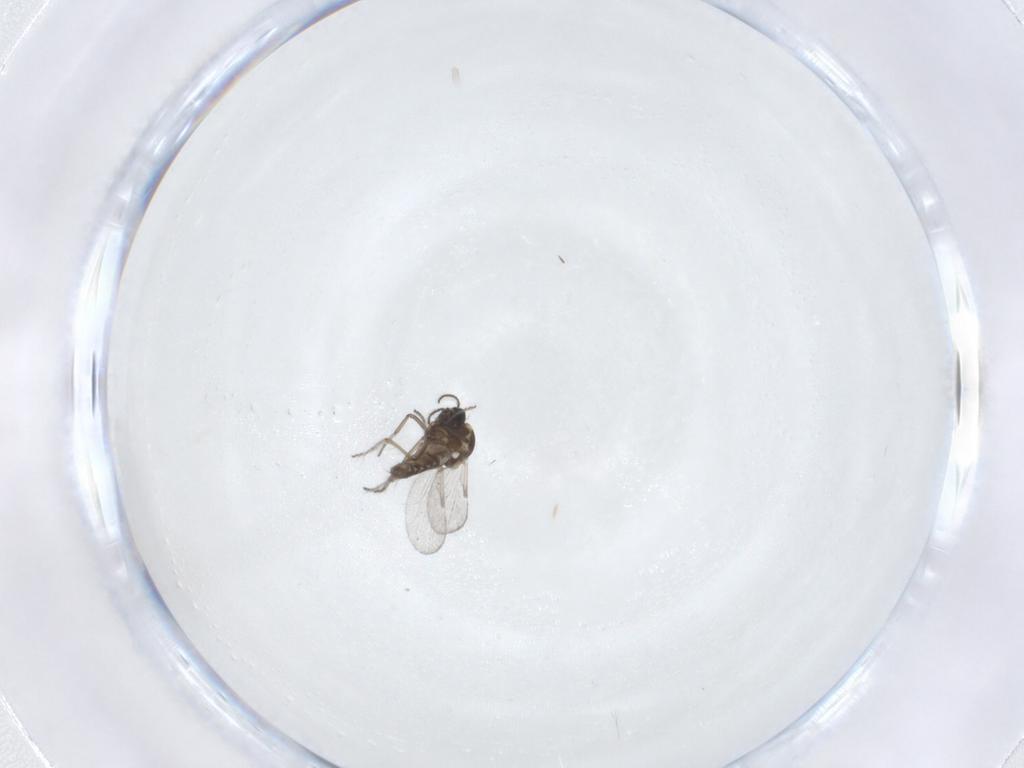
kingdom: Animalia
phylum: Arthropoda
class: Insecta
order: Diptera
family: Ceratopogonidae
